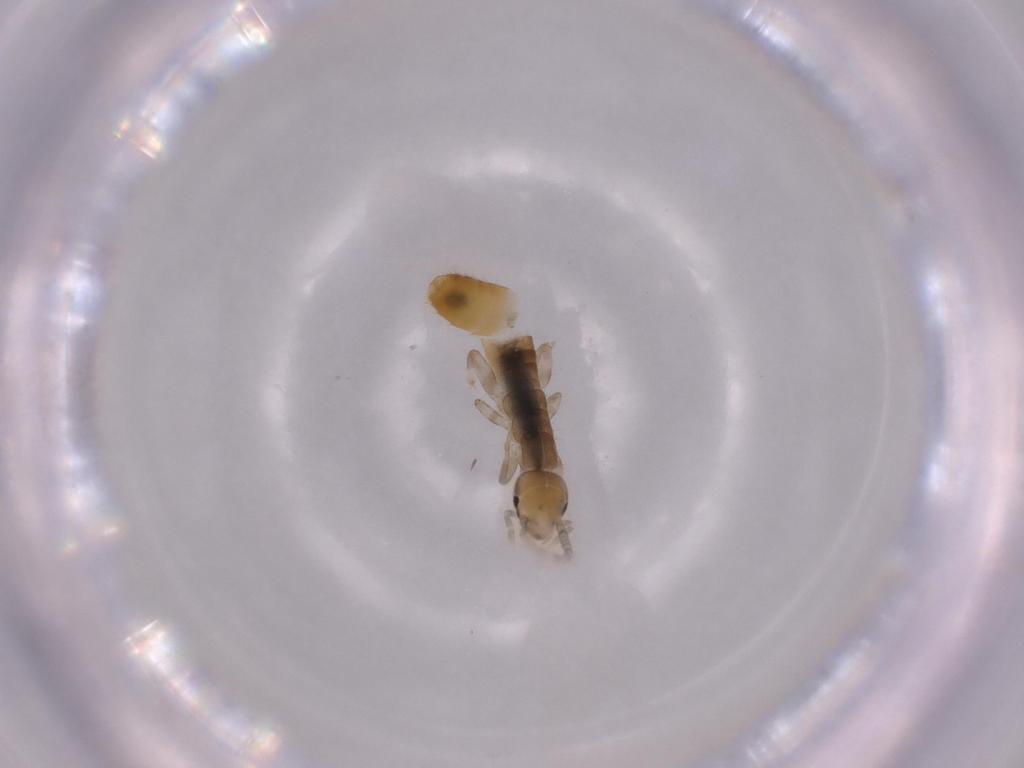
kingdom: Animalia
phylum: Arthropoda
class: Insecta
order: Dermaptera
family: Forficulidae
